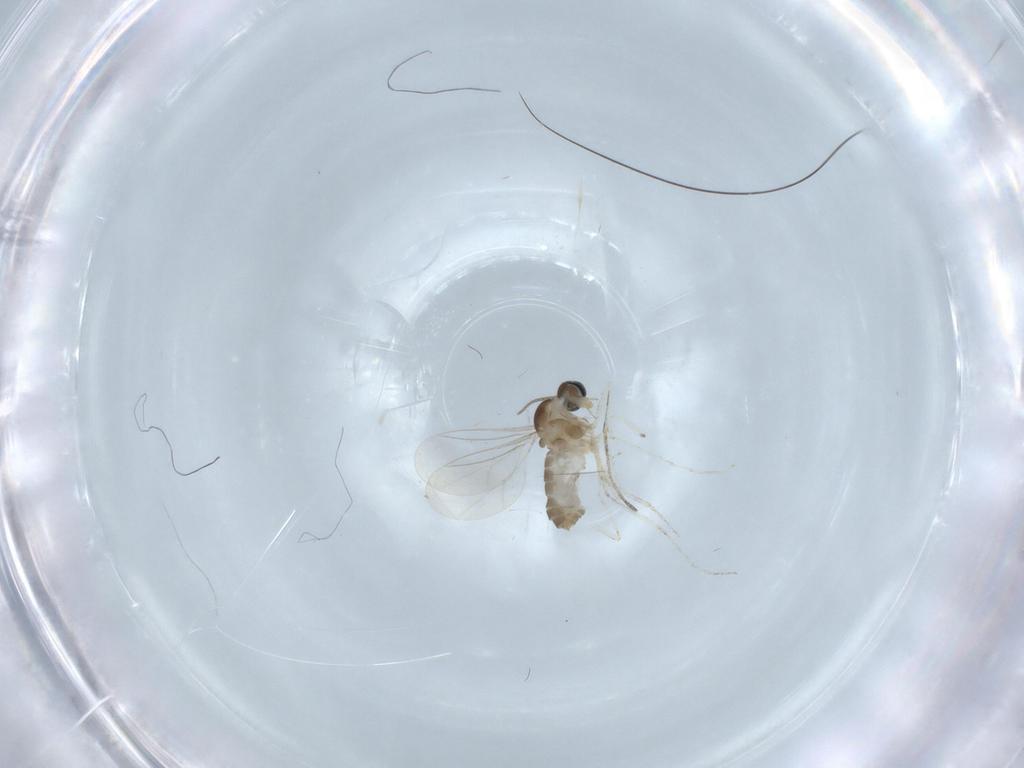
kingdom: Animalia
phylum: Arthropoda
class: Insecta
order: Diptera
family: Cecidomyiidae
